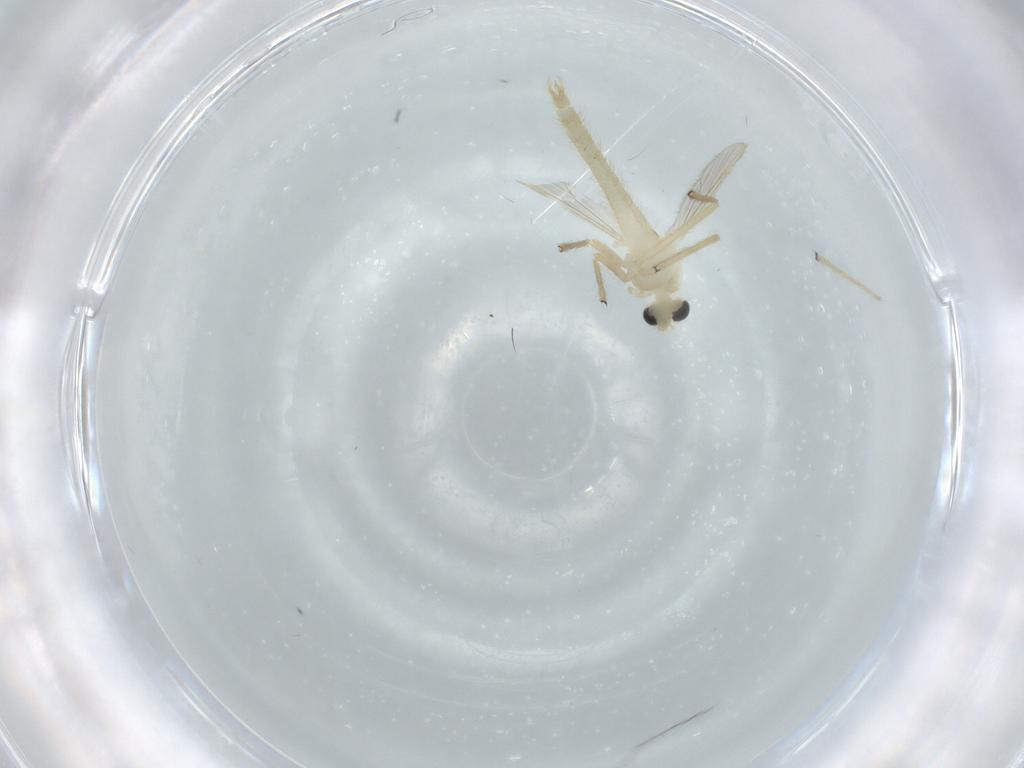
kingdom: Animalia
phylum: Arthropoda
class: Insecta
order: Diptera
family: Chironomidae
